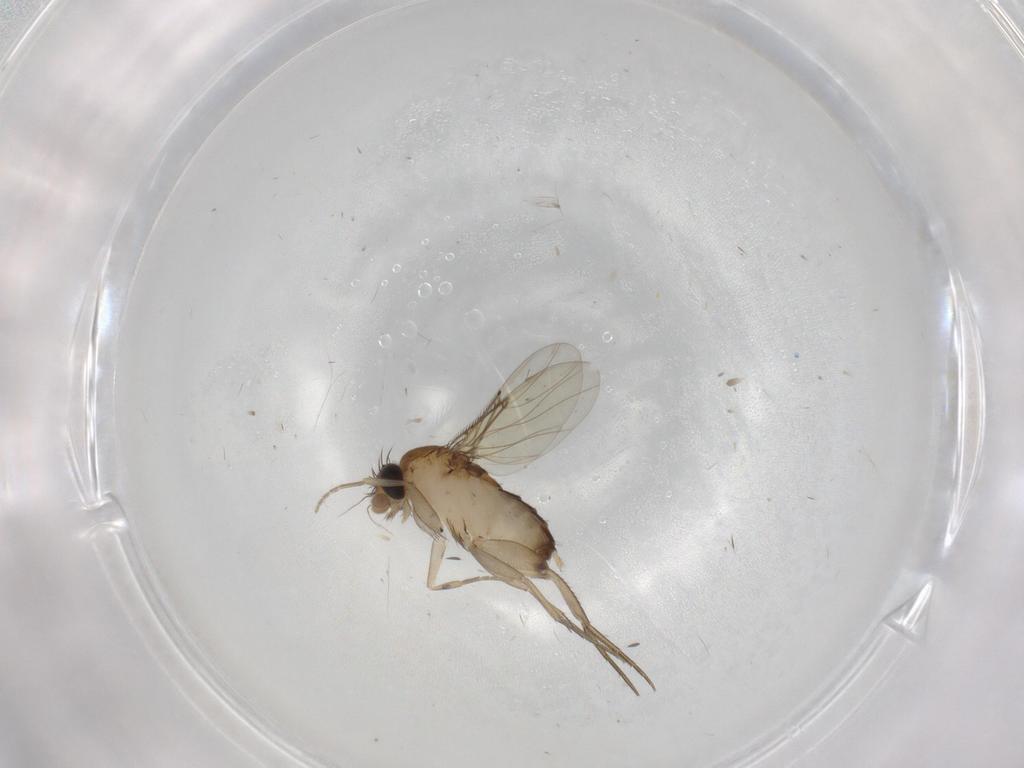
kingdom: Animalia
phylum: Arthropoda
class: Insecta
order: Diptera
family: Phoridae
